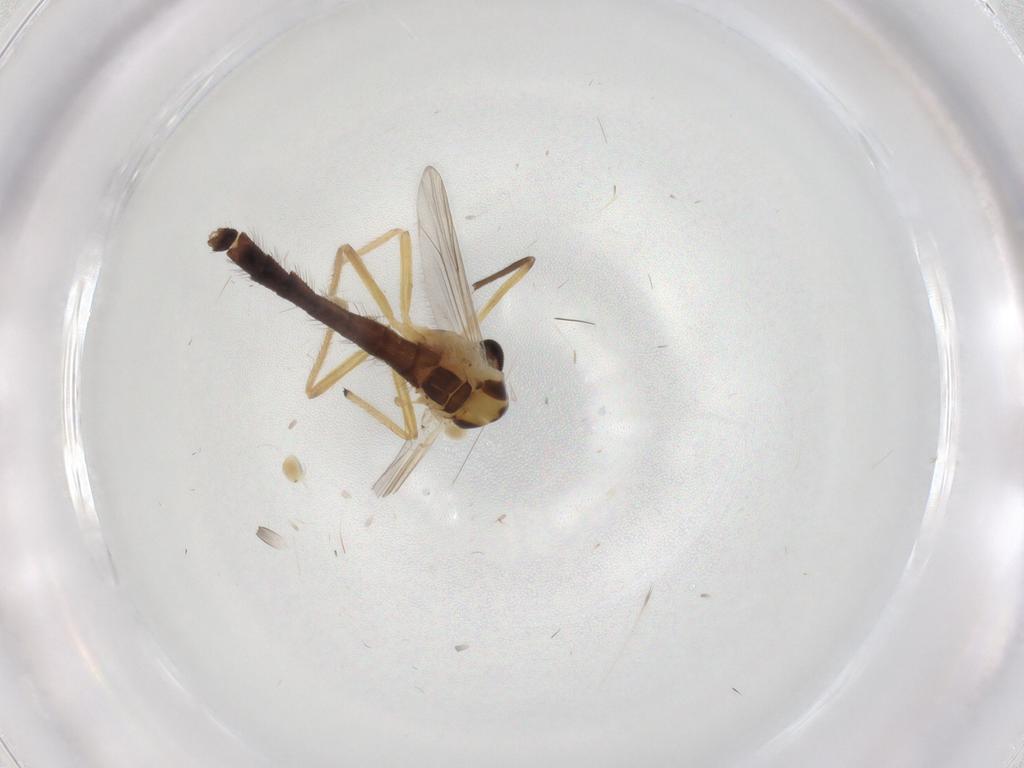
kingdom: Animalia
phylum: Arthropoda
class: Insecta
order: Diptera
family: Chironomidae
